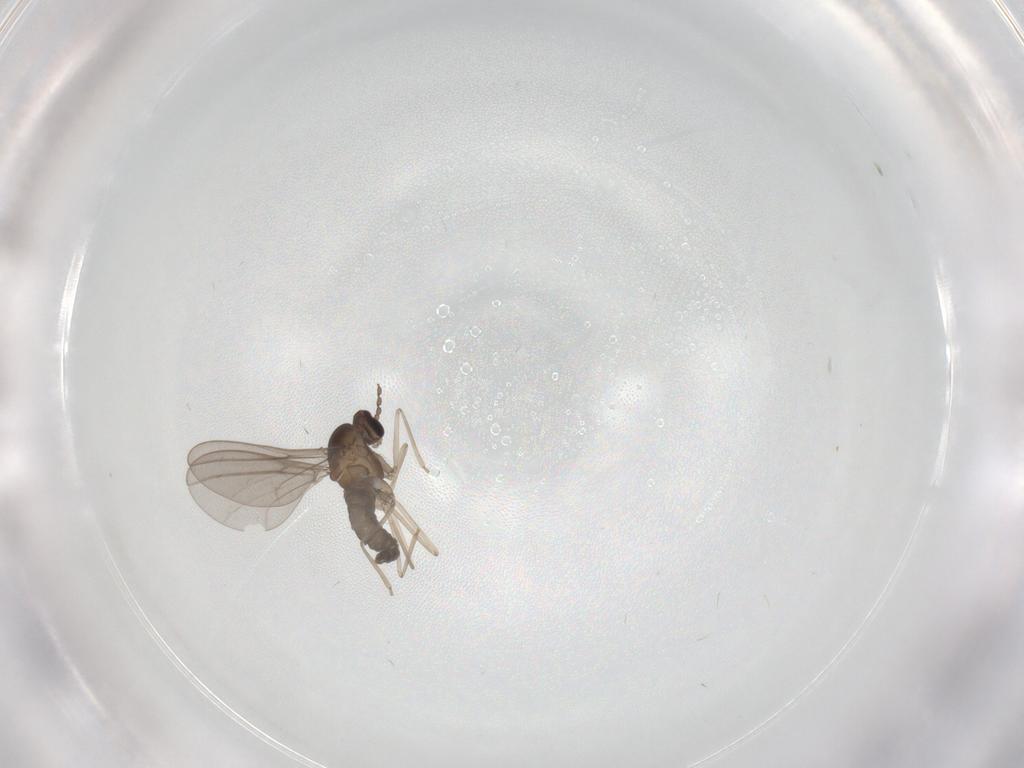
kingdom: Animalia
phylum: Arthropoda
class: Insecta
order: Diptera
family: Cecidomyiidae
